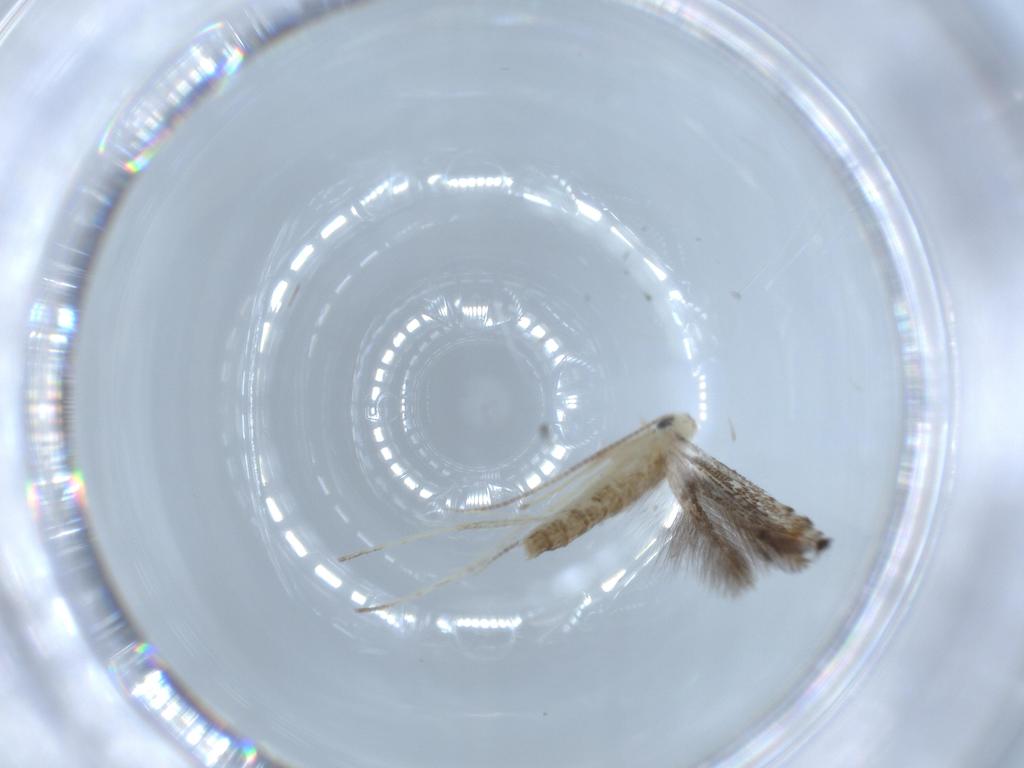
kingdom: Animalia
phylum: Arthropoda
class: Insecta
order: Lepidoptera
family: Gracillariidae
